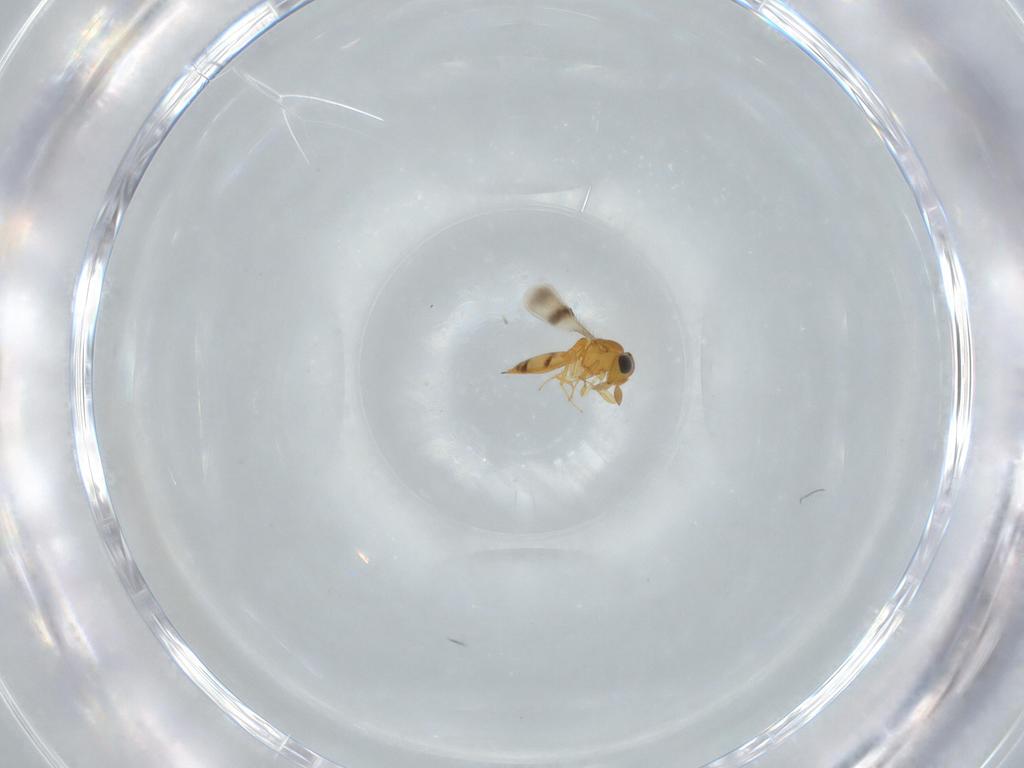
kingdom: Animalia
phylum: Arthropoda
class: Insecta
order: Hymenoptera
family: Scelionidae
